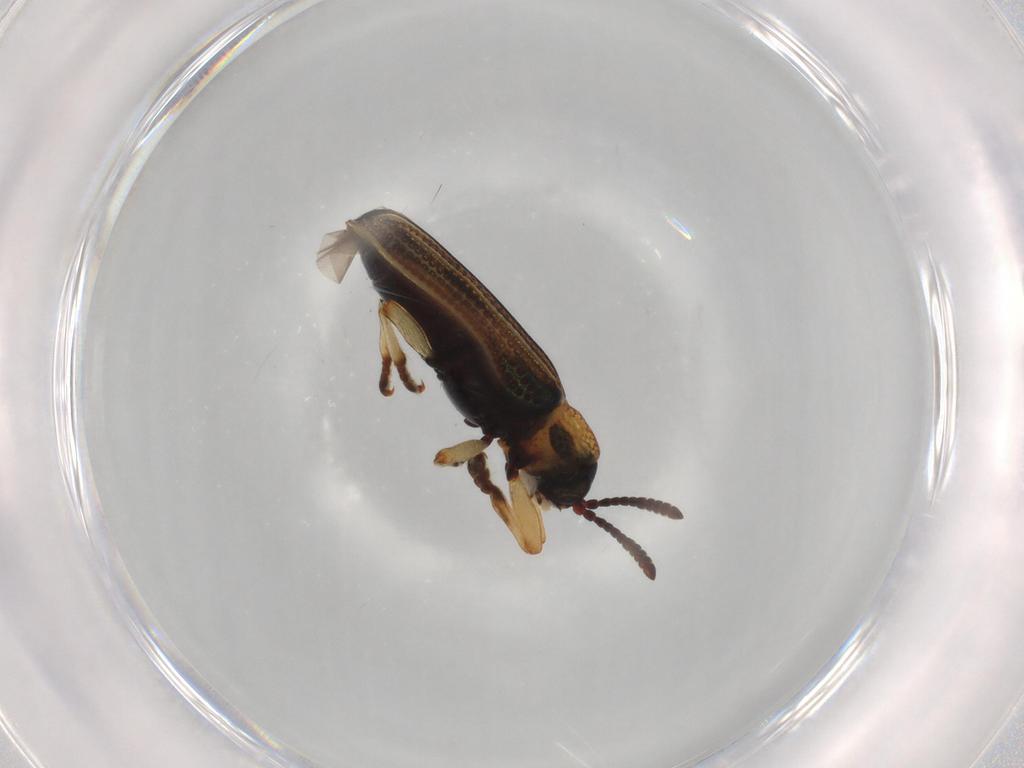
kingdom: Animalia
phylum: Arthropoda
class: Insecta
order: Coleoptera
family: Chrysomelidae
